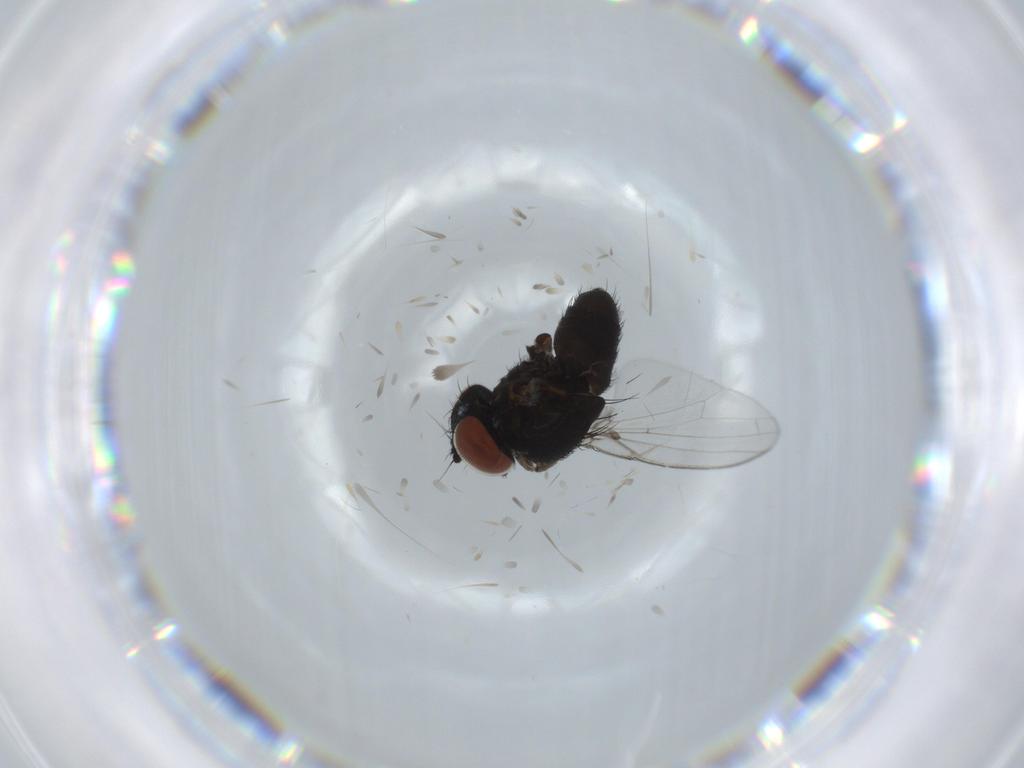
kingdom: Animalia
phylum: Arthropoda
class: Insecta
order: Diptera
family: Milichiidae
